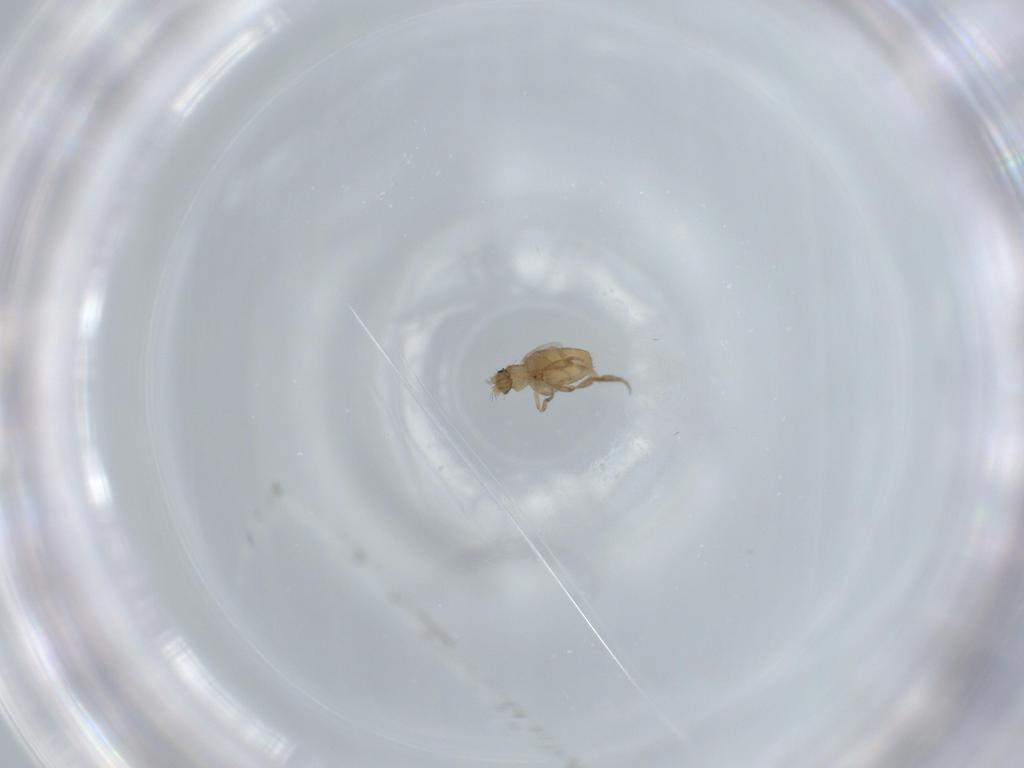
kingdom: Animalia
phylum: Arthropoda
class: Insecta
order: Diptera
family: Phoridae
